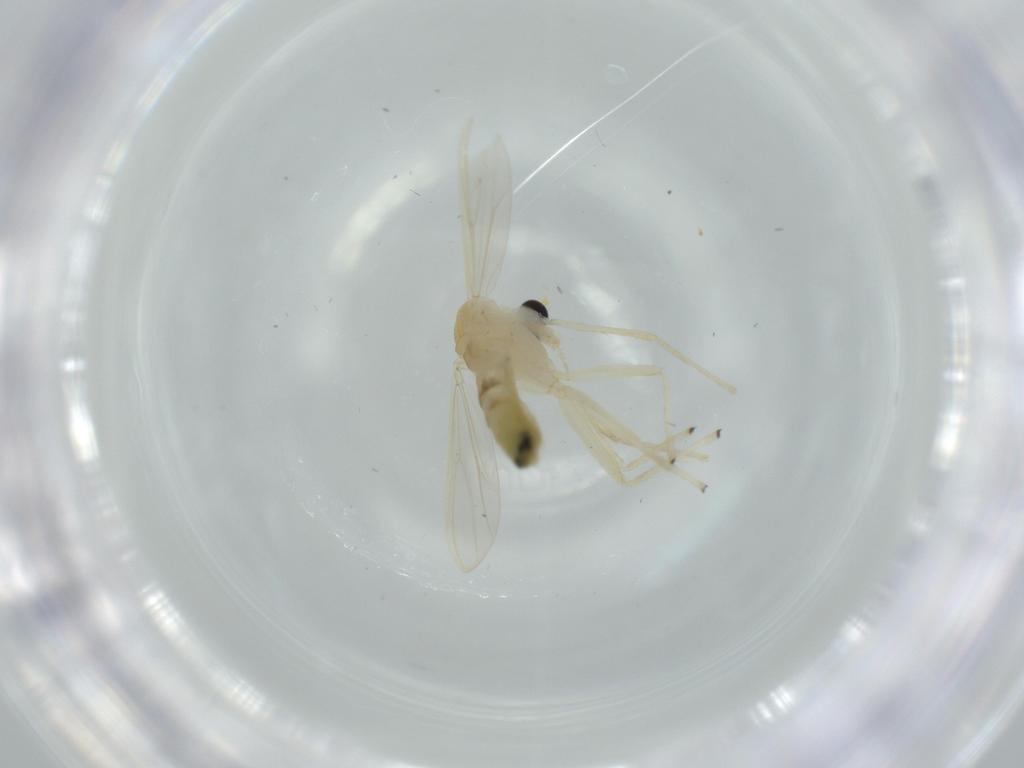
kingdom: Animalia
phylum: Arthropoda
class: Insecta
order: Diptera
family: Chironomidae
